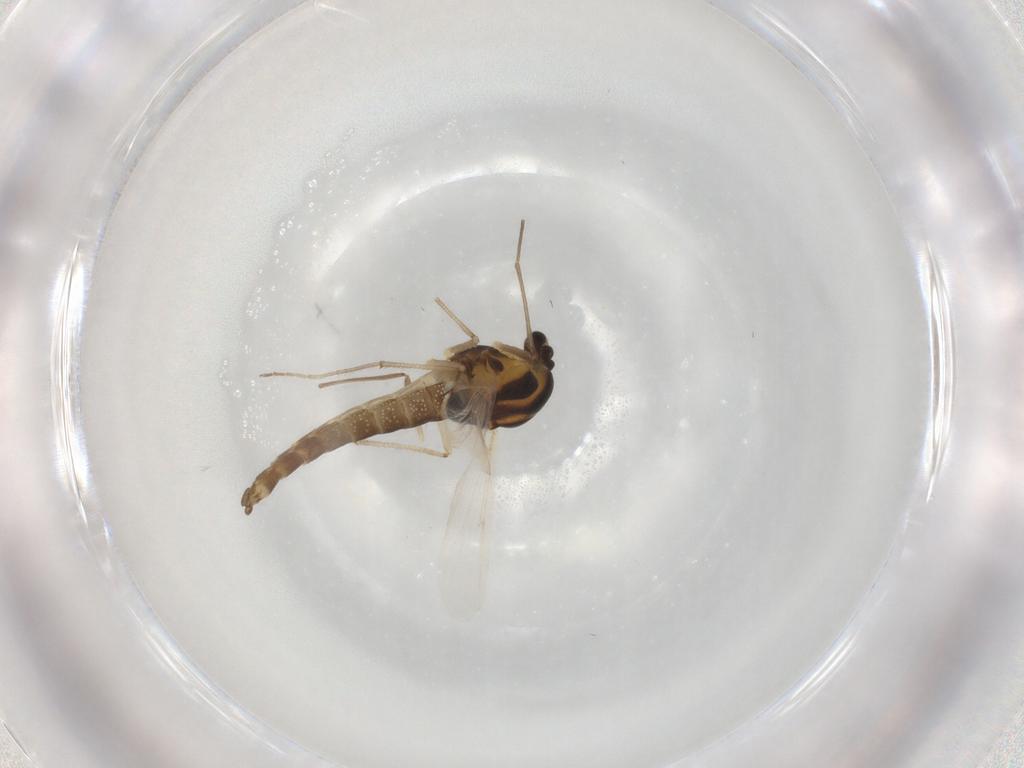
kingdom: Animalia
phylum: Arthropoda
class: Insecta
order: Diptera
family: Chironomidae
